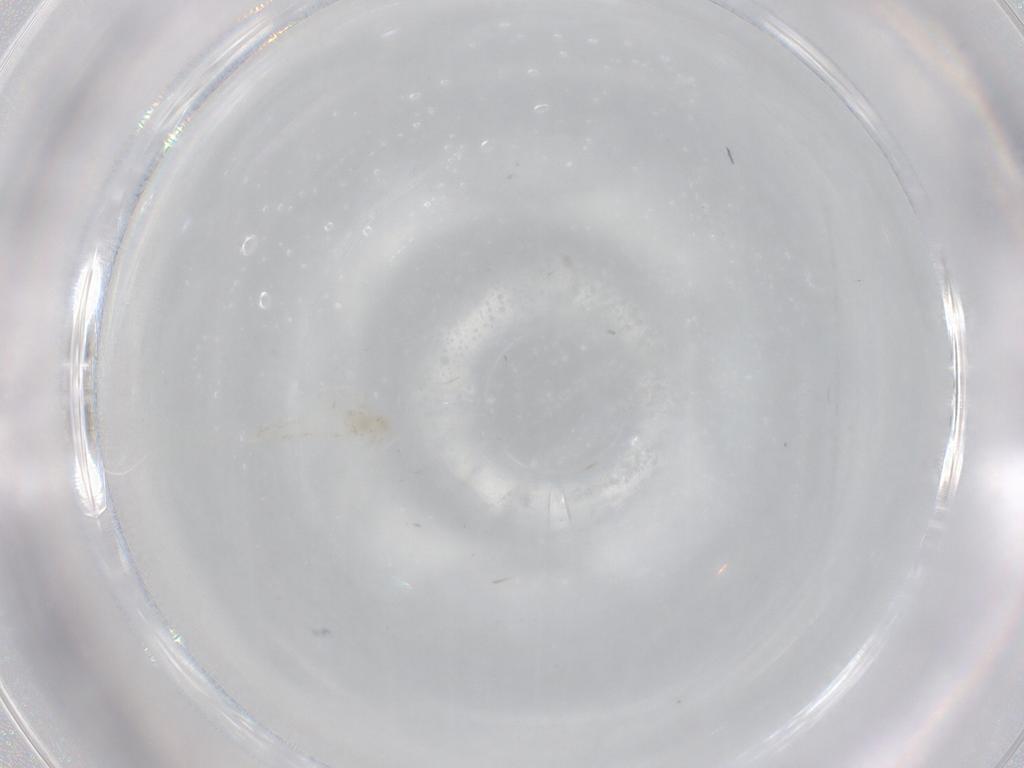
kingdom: Animalia
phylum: Arthropoda
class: Insecta
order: Diptera
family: Cecidomyiidae
